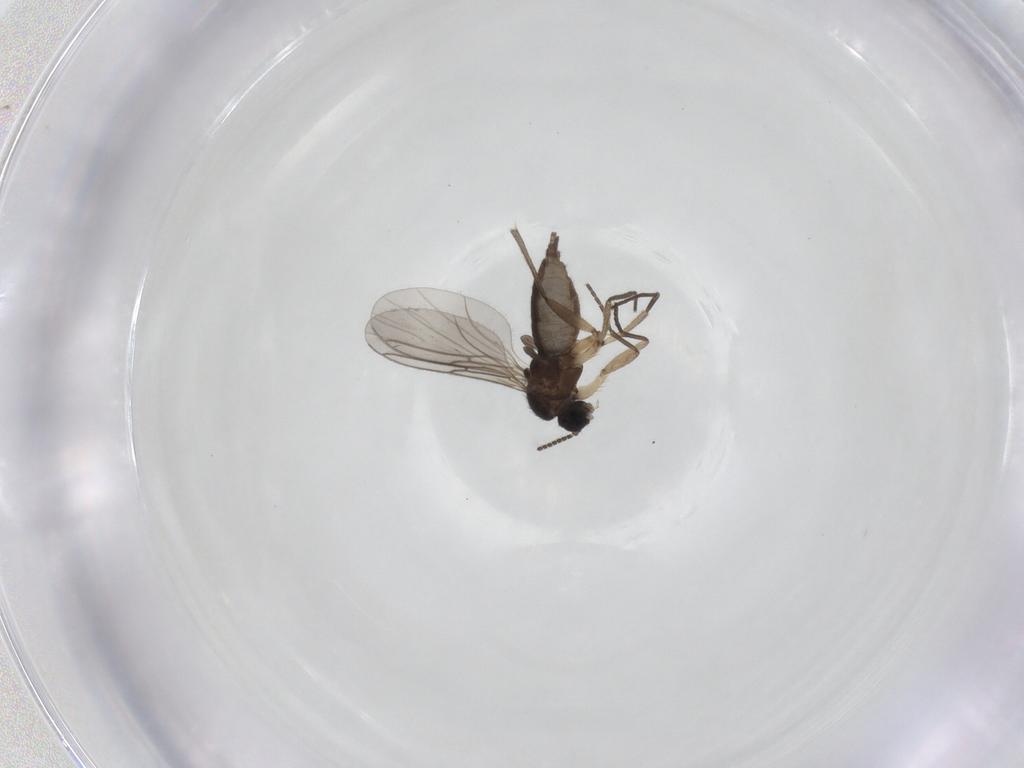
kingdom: Animalia
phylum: Arthropoda
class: Insecta
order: Diptera
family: Sciaridae
